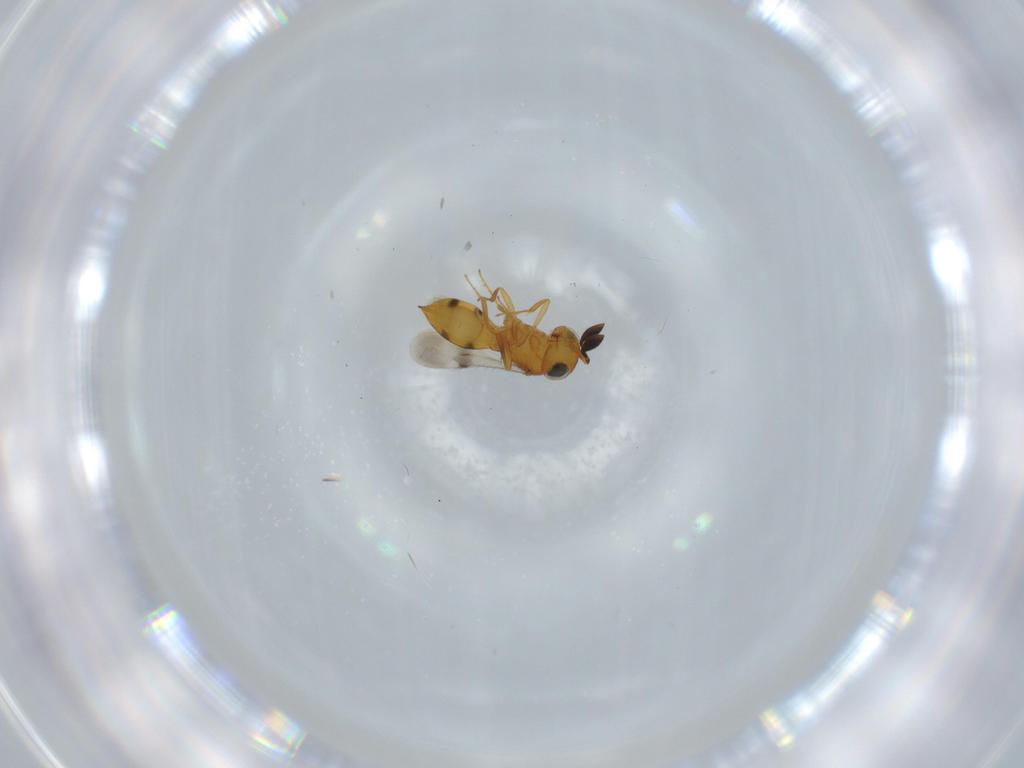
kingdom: Animalia
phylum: Arthropoda
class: Insecta
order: Hymenoptera
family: Scelionidae
